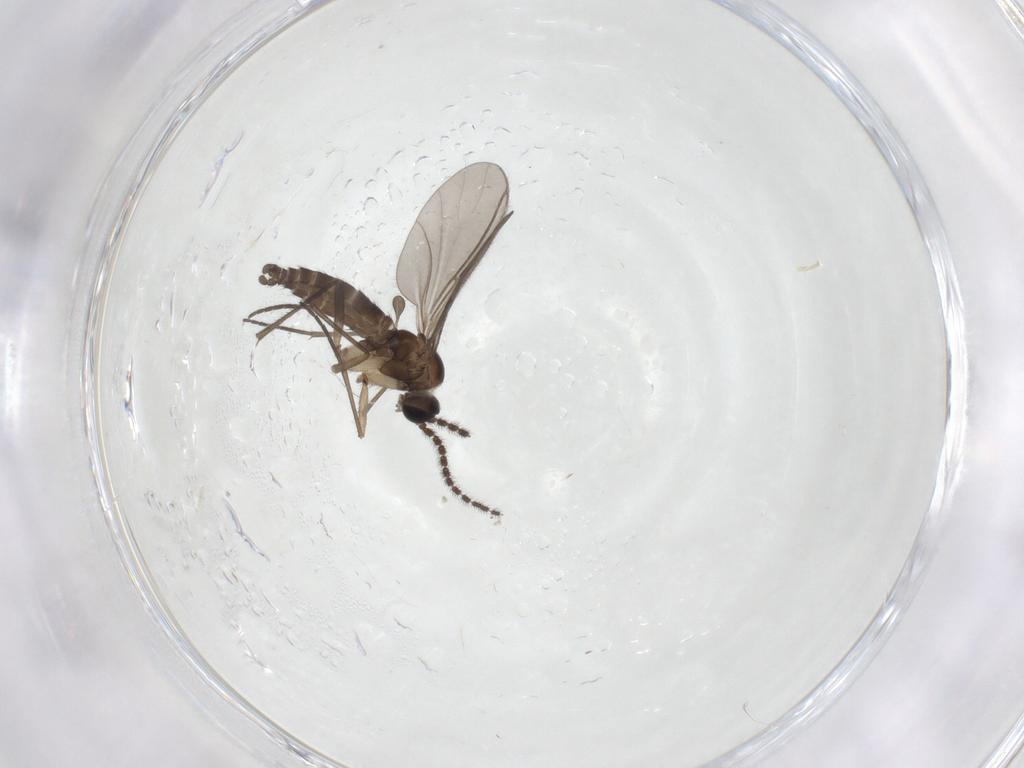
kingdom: Animalia
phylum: Arthropoda
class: Insecta
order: Diptera
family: Sciaridae
